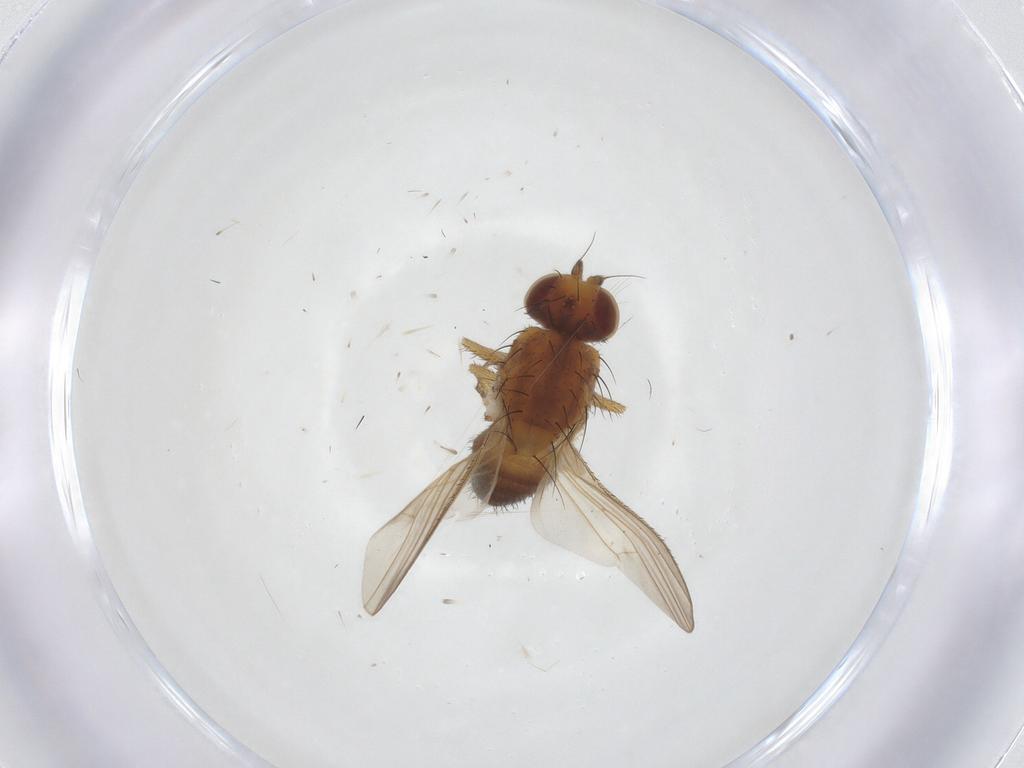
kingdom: Animalia
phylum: Arthropoda
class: Insecta
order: Diptera
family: Heleomyzidae
